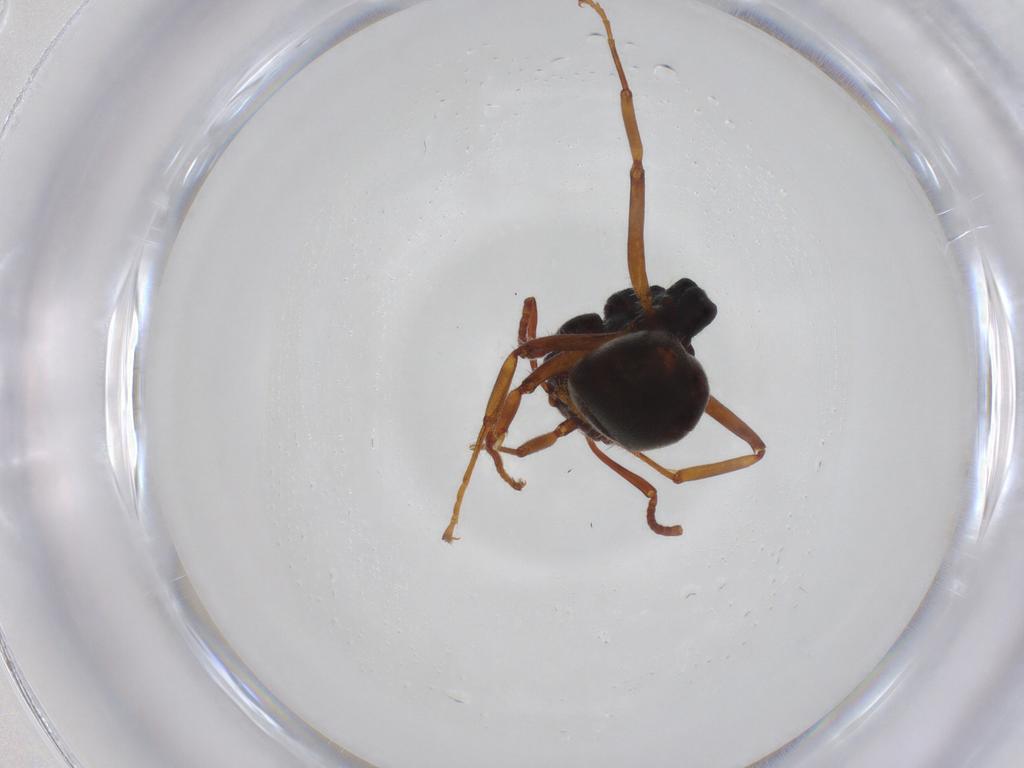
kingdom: Animalia
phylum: Arthropoda
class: Insecta
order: Hymenoptera
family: Formicidae
